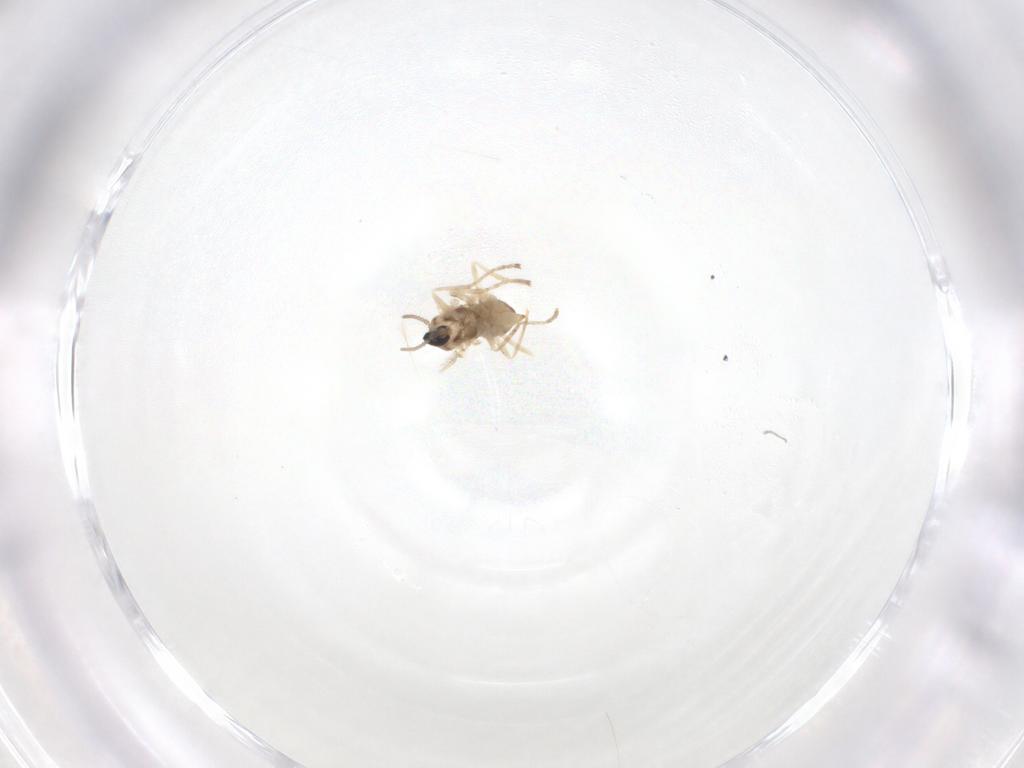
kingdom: Animalia
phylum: Arthropoda
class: Insecta
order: Diptera
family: Cecidomyiidae
